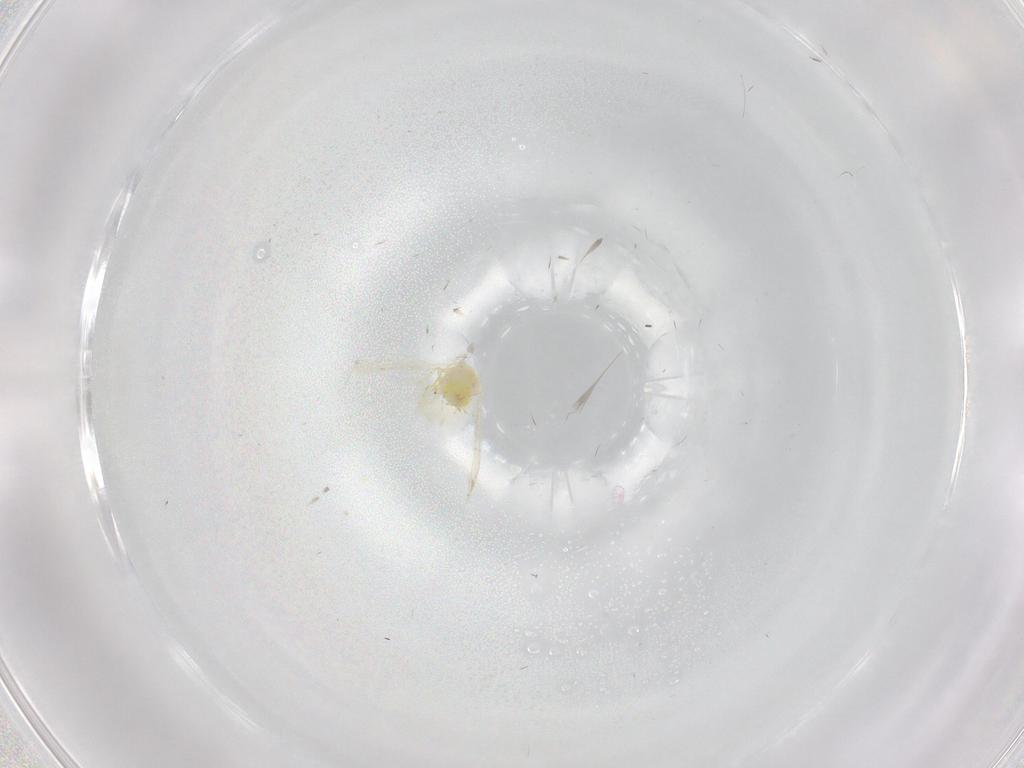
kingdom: Animalia
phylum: Arthropoda
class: Insecta
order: Hemiptera
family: Aleyrodidae
